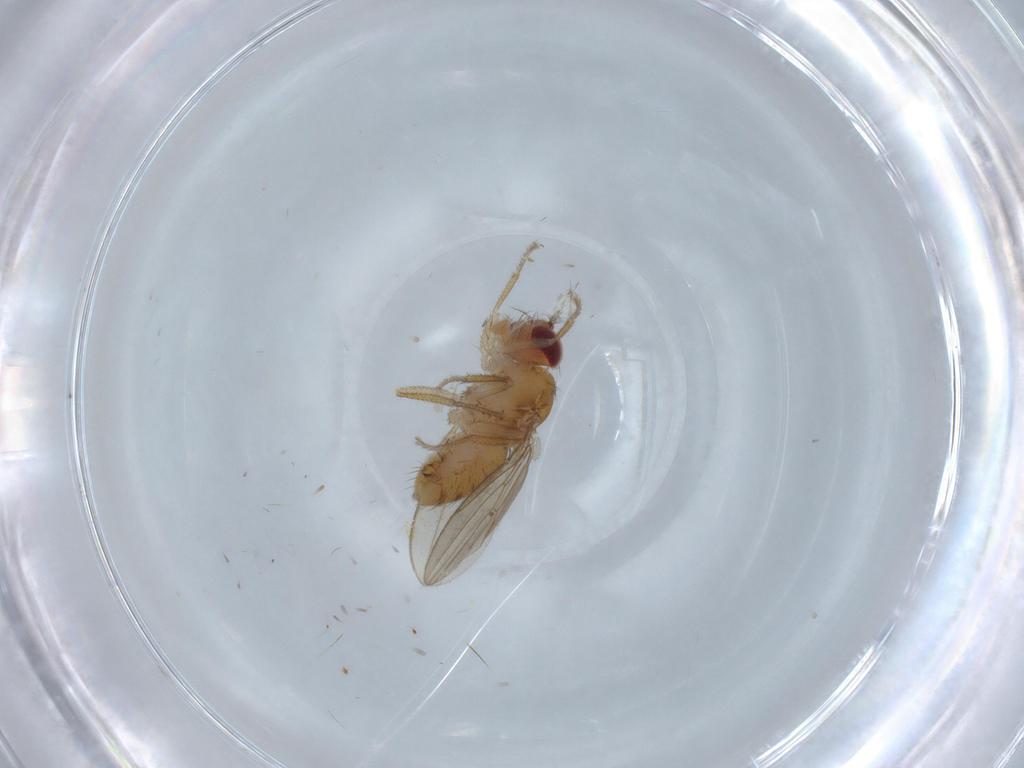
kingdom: Animalia
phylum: Arthropoda
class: Insecta
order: Diptera
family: Drosophilidae
